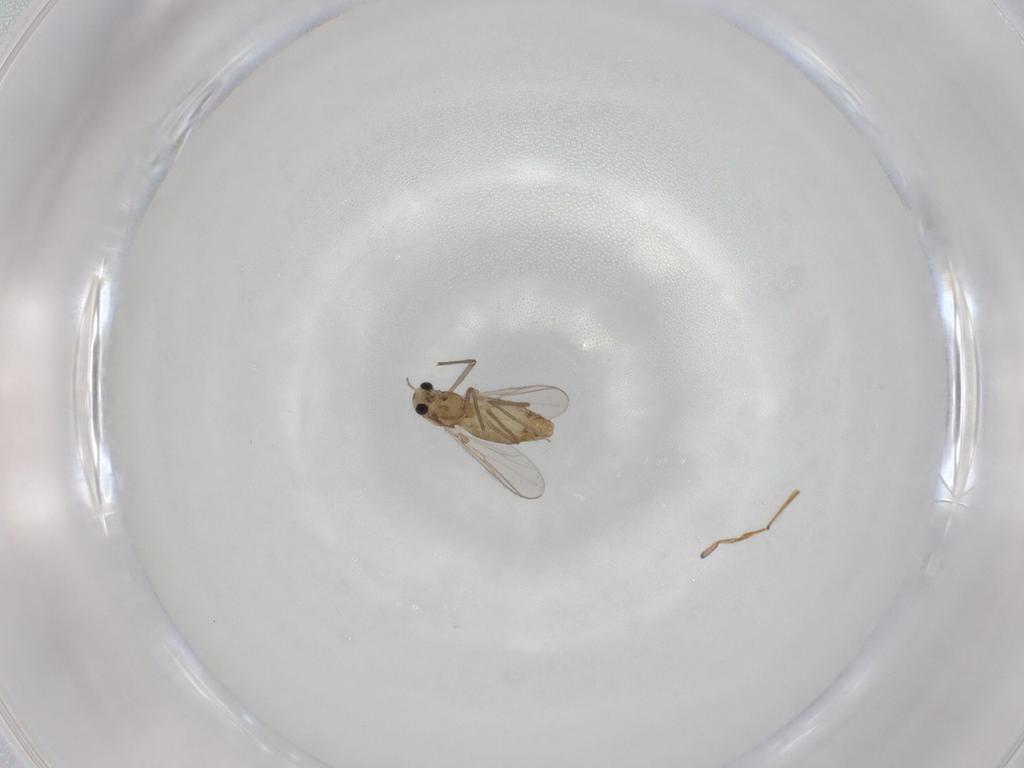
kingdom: Animalia
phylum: Arthropoda
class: Insecta
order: Diptera
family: Chironomidae
